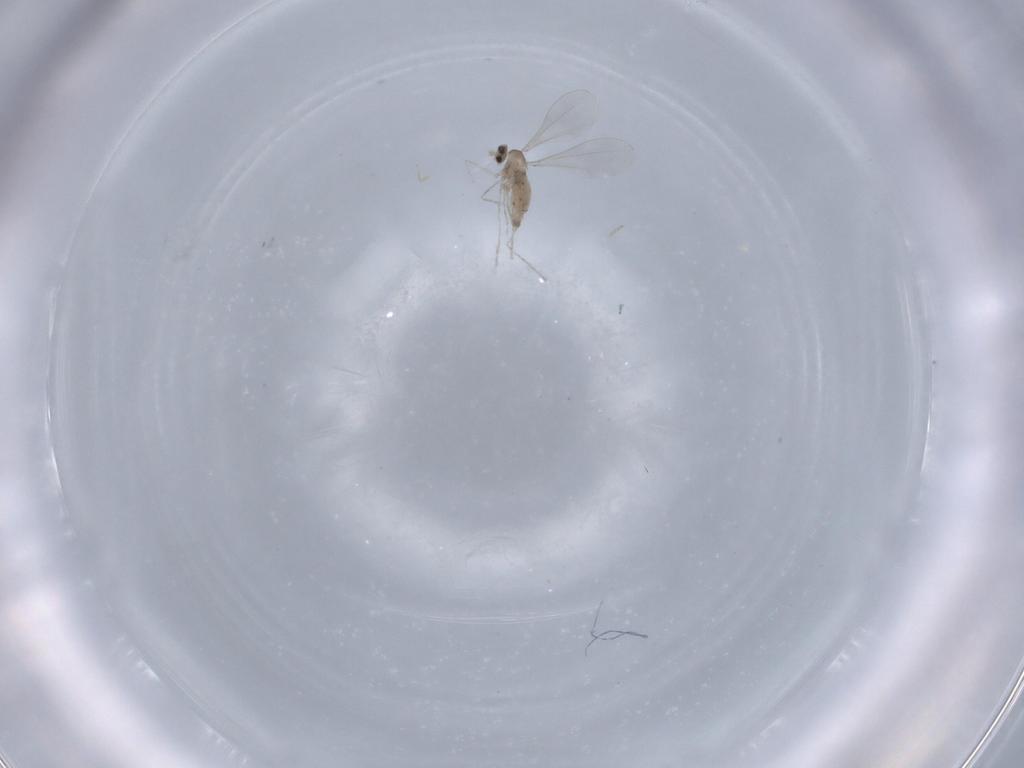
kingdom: Animalia
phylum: Arthropoda
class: Insecta
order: Diptera
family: Cecidomyiidae
